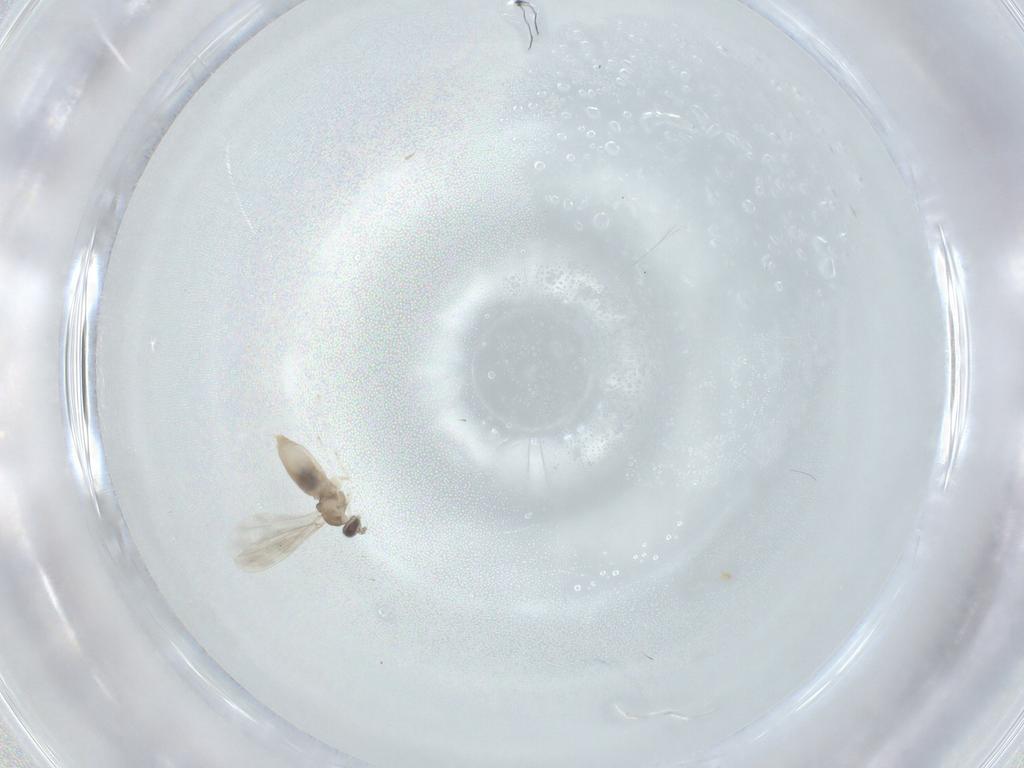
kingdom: Animalia
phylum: Arthropoda
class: Insecta
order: Diptera
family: Cecidomyiidae
